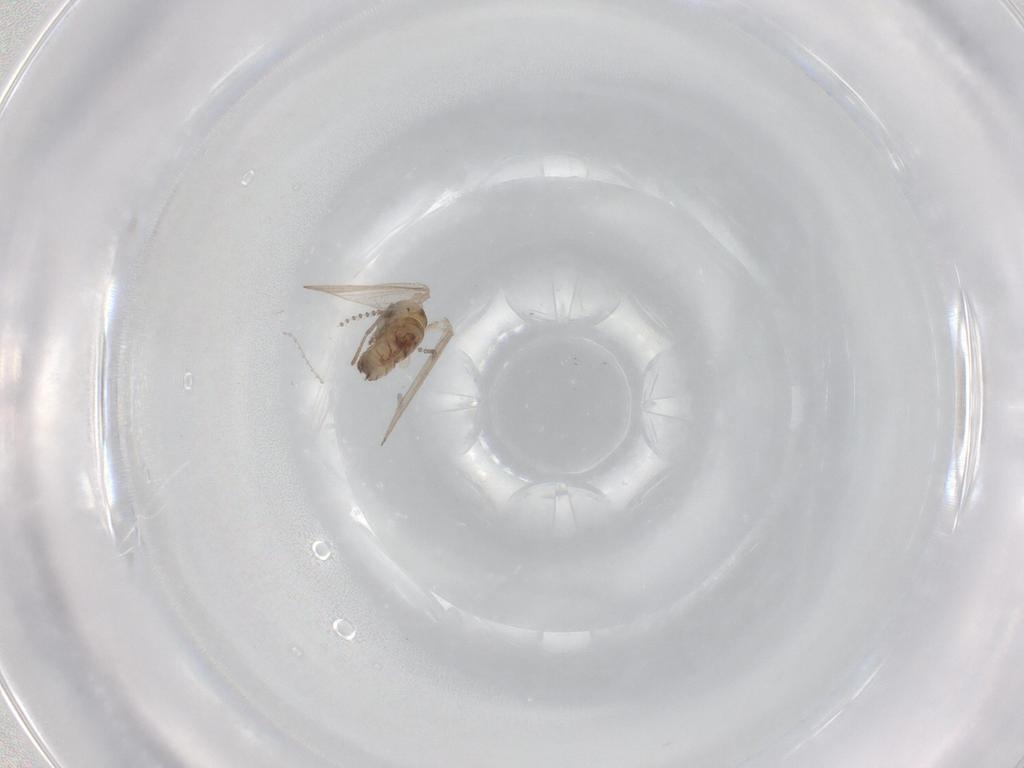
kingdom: Animalia
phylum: Arthropoda
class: Insecta
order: Diptera
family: Psychodidae
